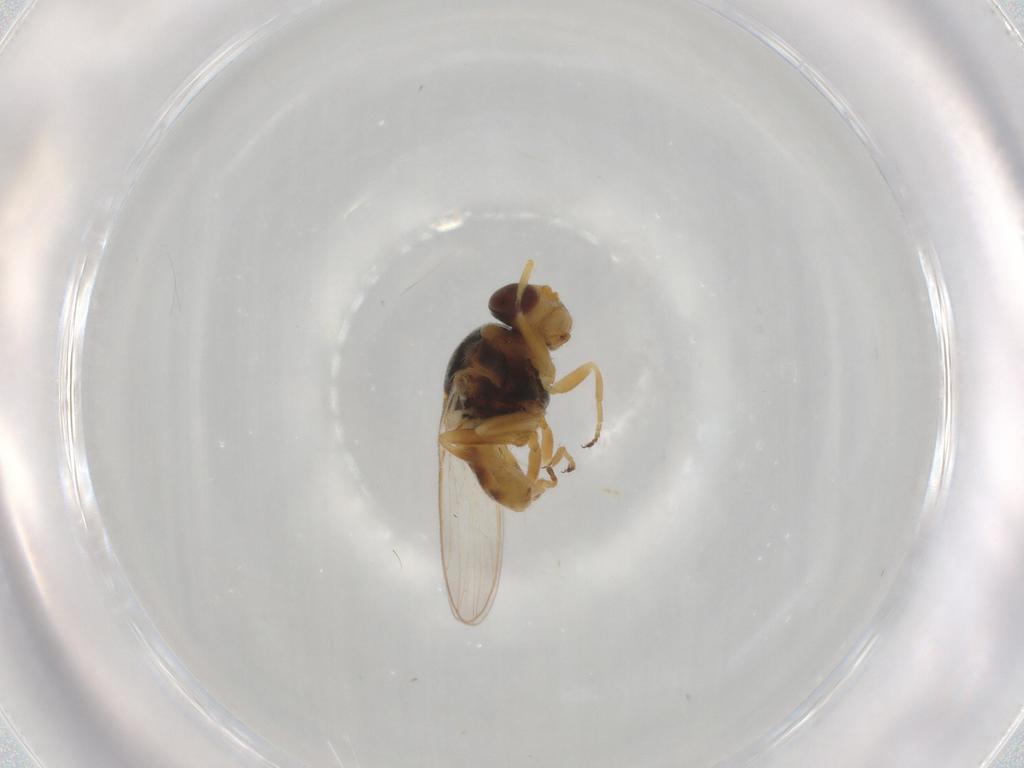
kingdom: Animalia
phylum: Arthropoda
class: Insecta
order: Diptera
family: Chloropidae
